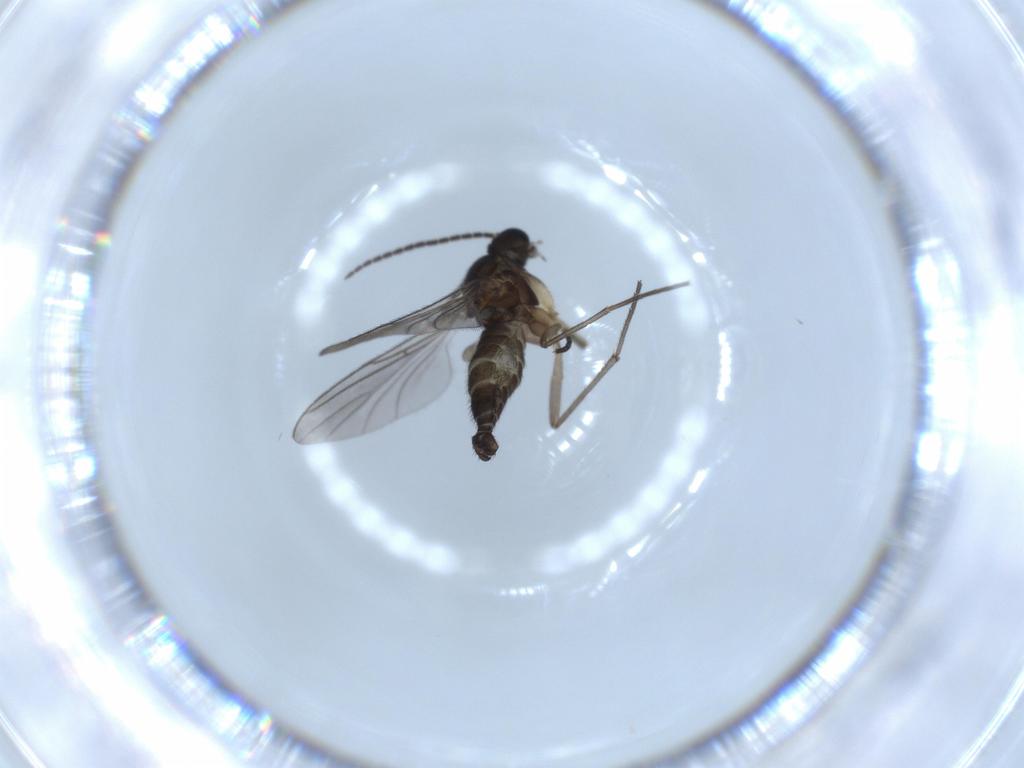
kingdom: Animalia
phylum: Arthropoda
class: Insecta
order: Diptera
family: Sciaridae
